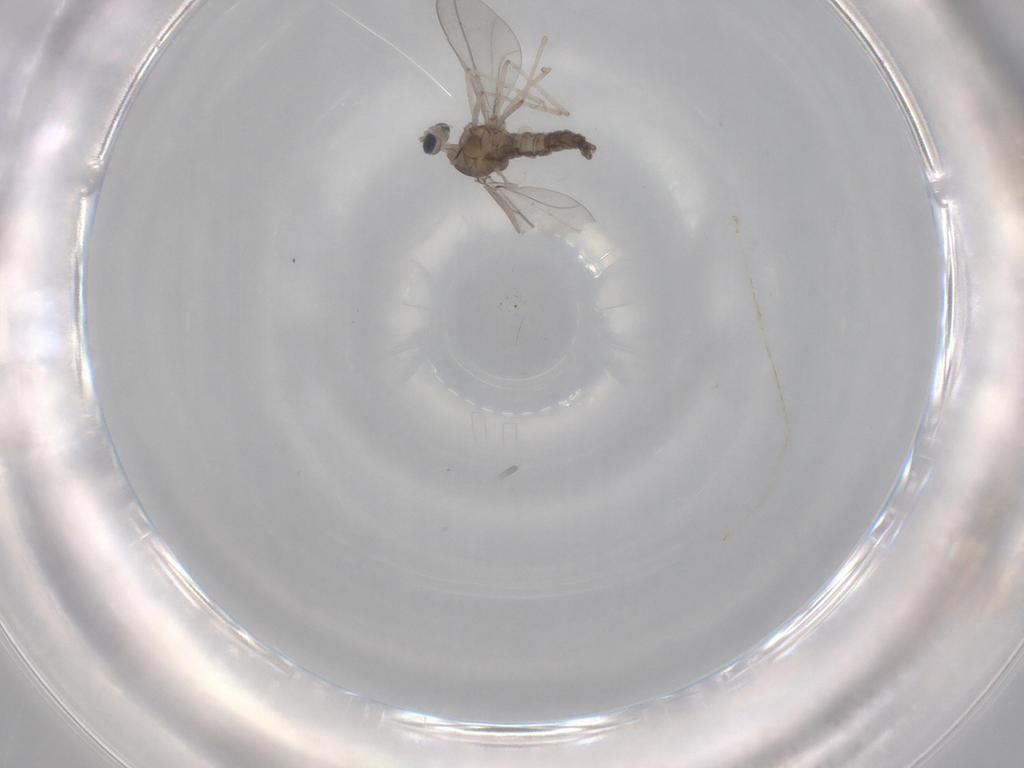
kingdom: Animalia
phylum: Arthropoda
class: Insecta
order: Diptera
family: Cecidomyiidae
